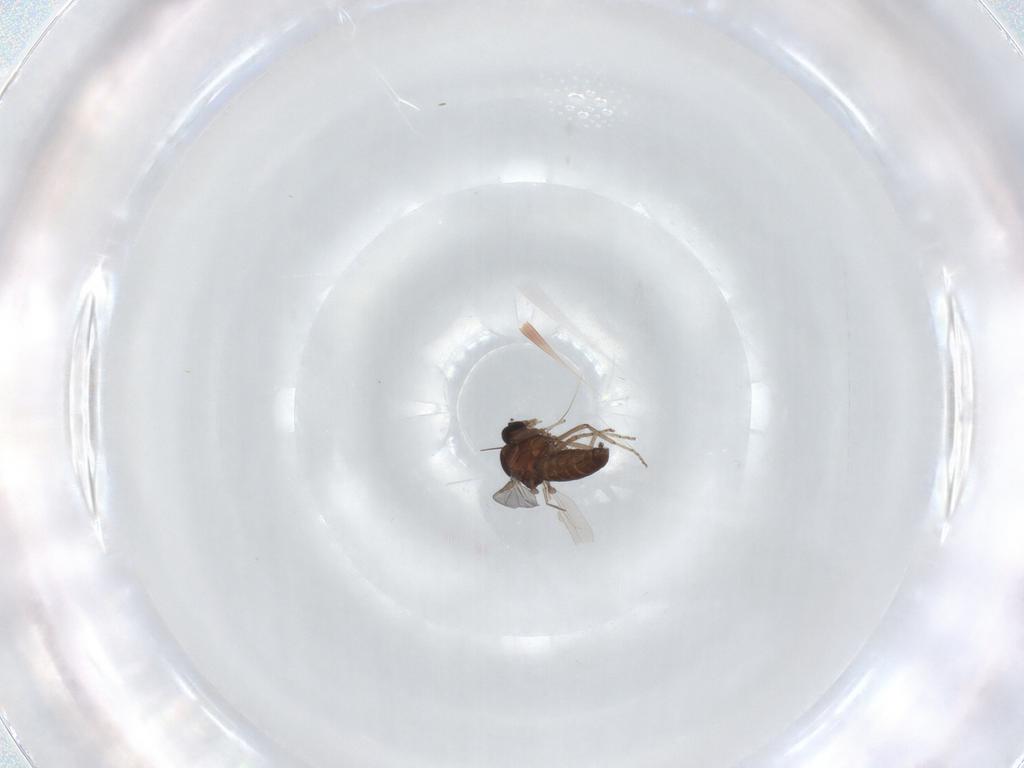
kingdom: Animalia
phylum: Arthropoda
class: Insecta
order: Diptera
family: Ceratopogonidae
